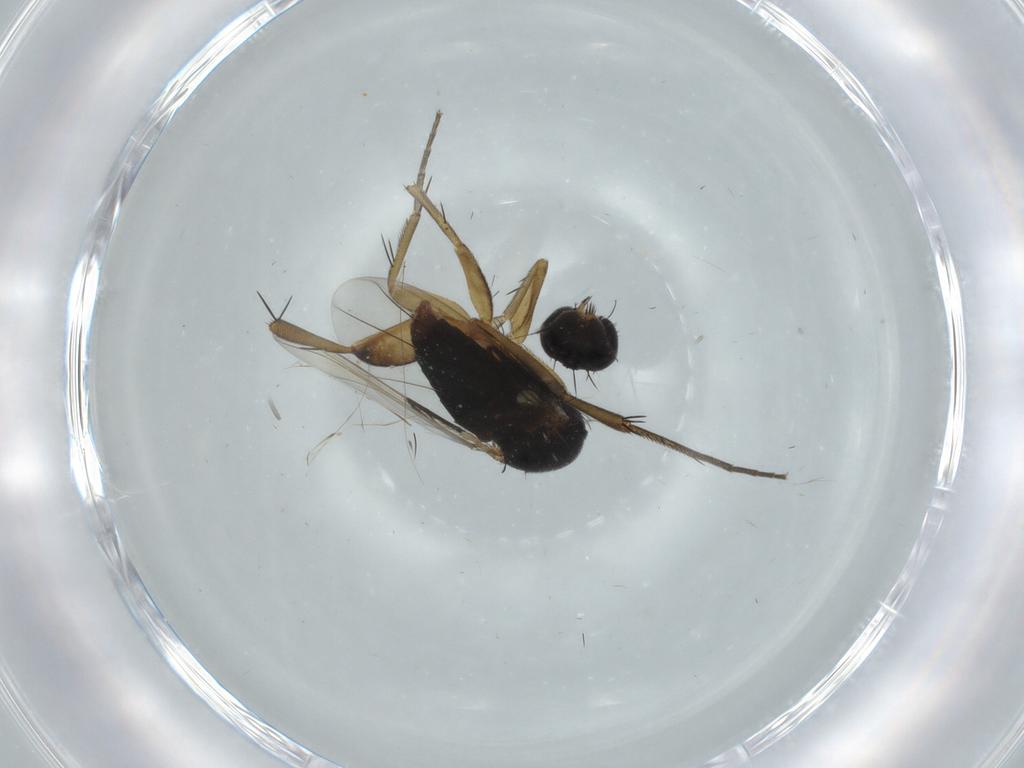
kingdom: Animalia
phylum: Arthropoda
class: Insecta
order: Diptera
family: Phoridae
